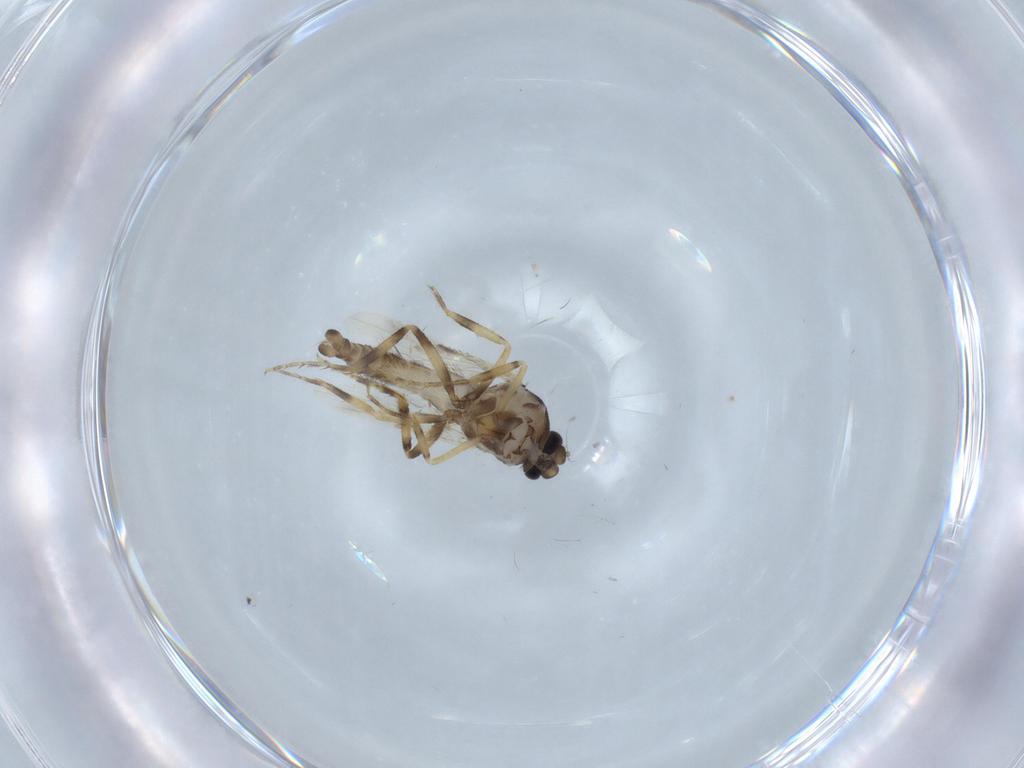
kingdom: Animalia
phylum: Arthropoda
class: Insecta
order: Diptera
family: Ceratopogonidae
